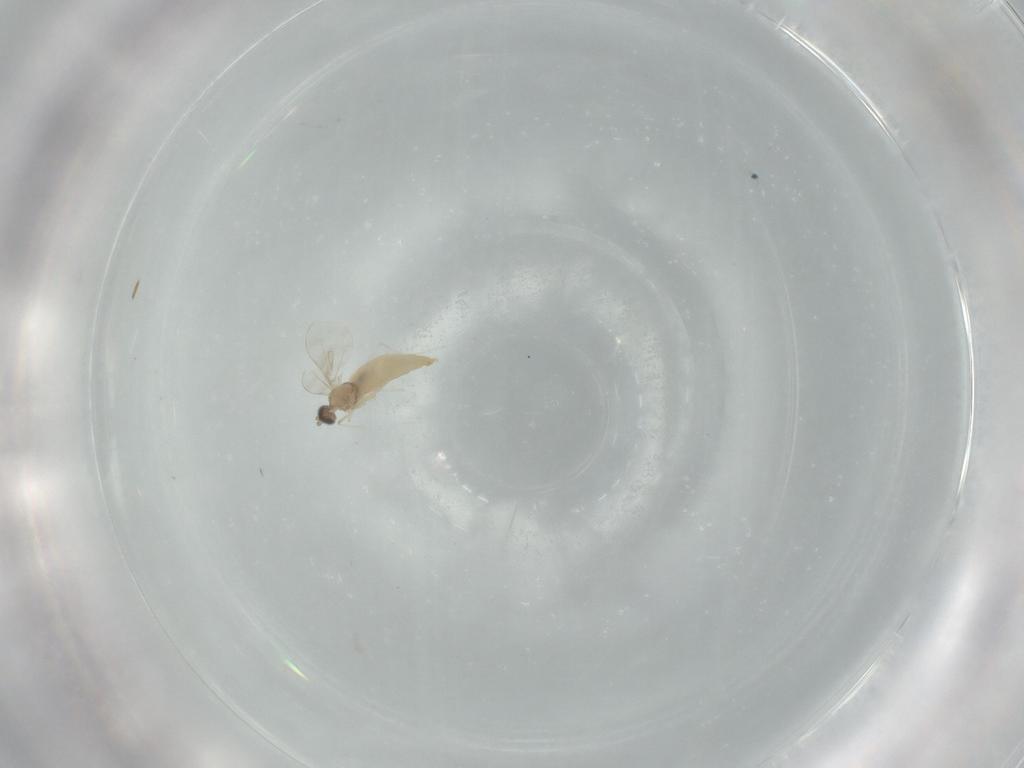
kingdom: Animalia
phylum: Arthropoda
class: Insecta
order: Diptera
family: Cecidomyiidae
